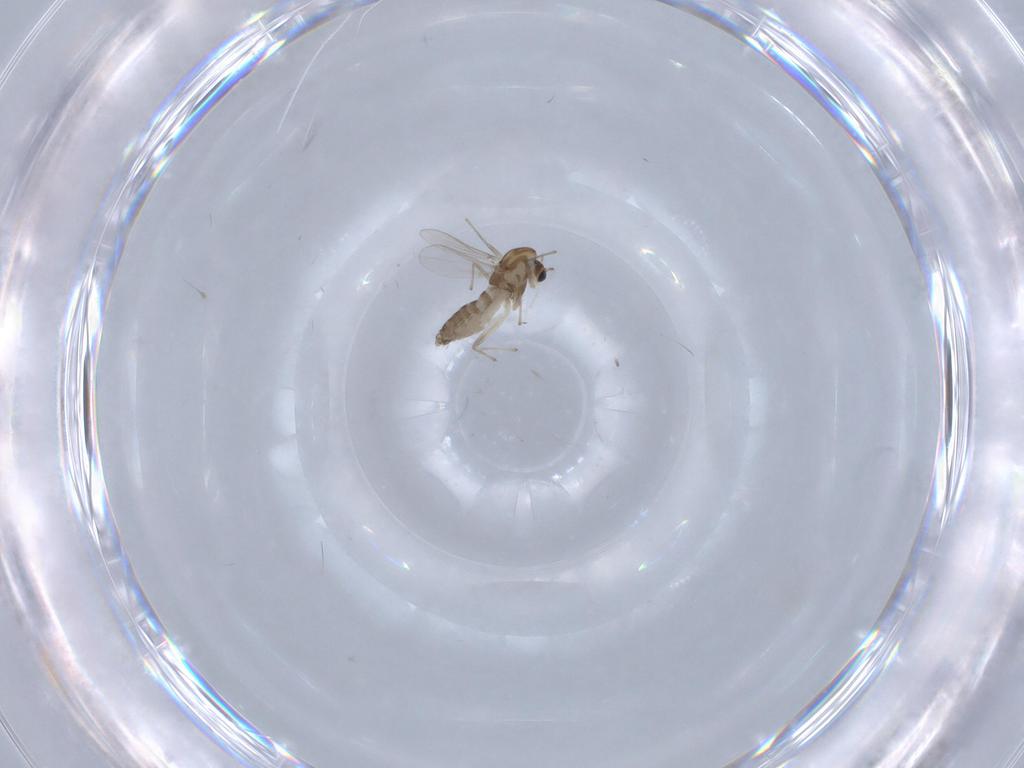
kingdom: Animalia
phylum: Arthropoda
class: Insecta
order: Diptera
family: Chironomidae
